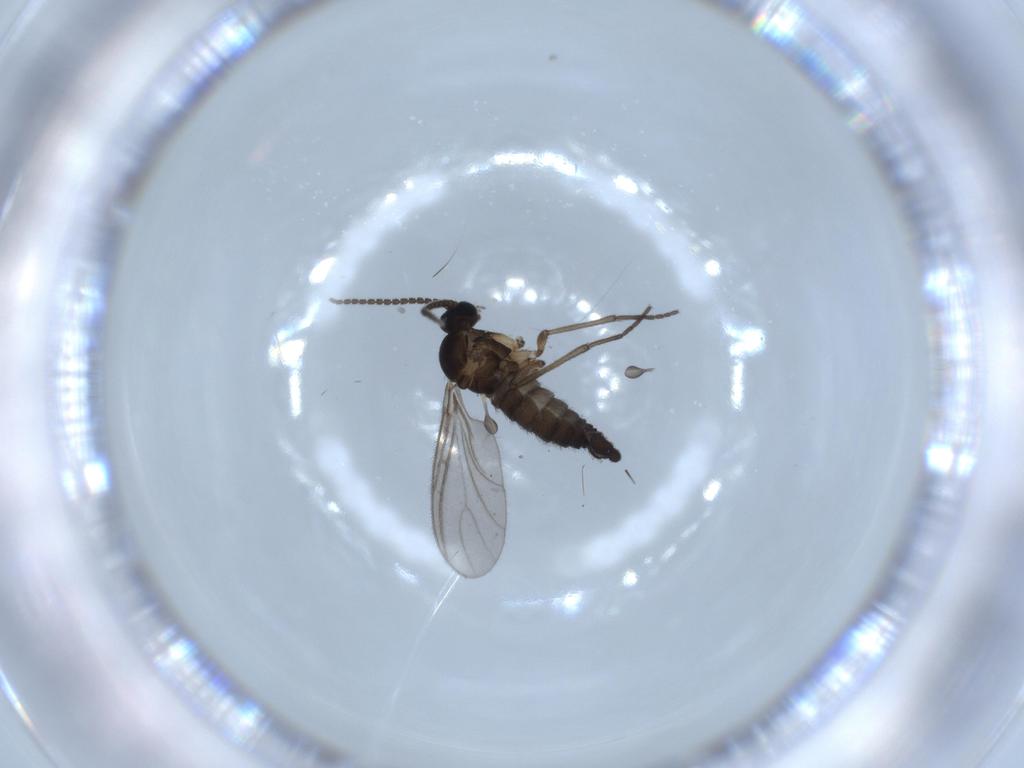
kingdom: Animalia
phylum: Arthropoda
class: Insecta
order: Diptera
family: Sciaridae
